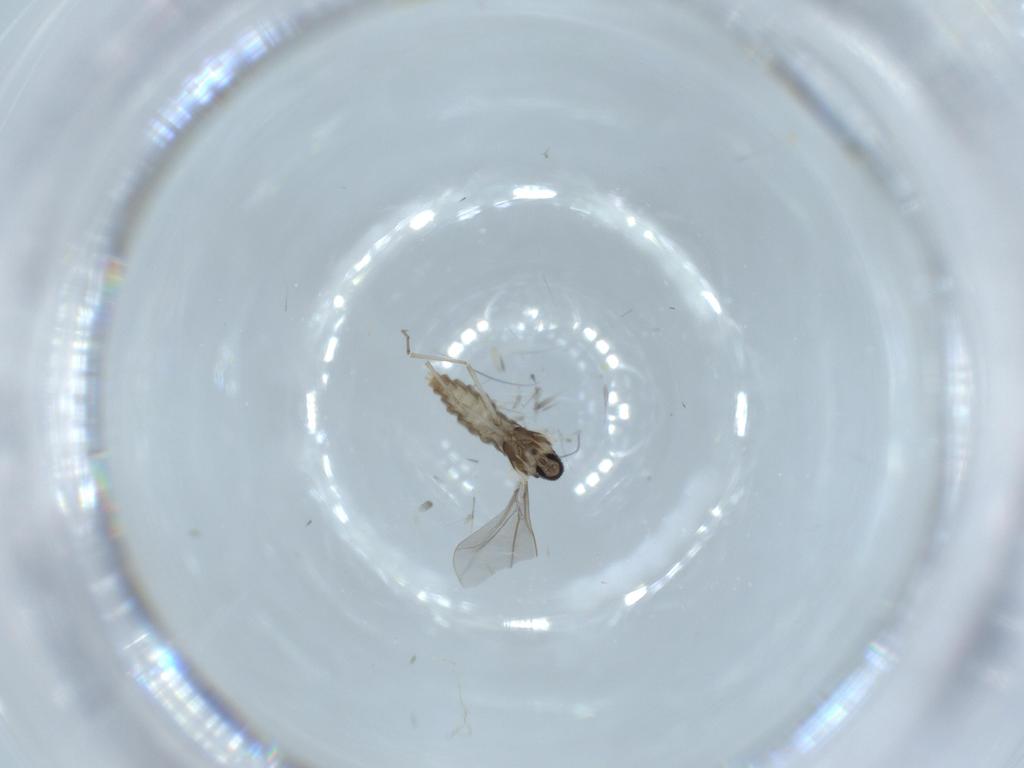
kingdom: Animalia
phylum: Arthropoda
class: Insecta
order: Diptera
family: Cecidomyiidae
